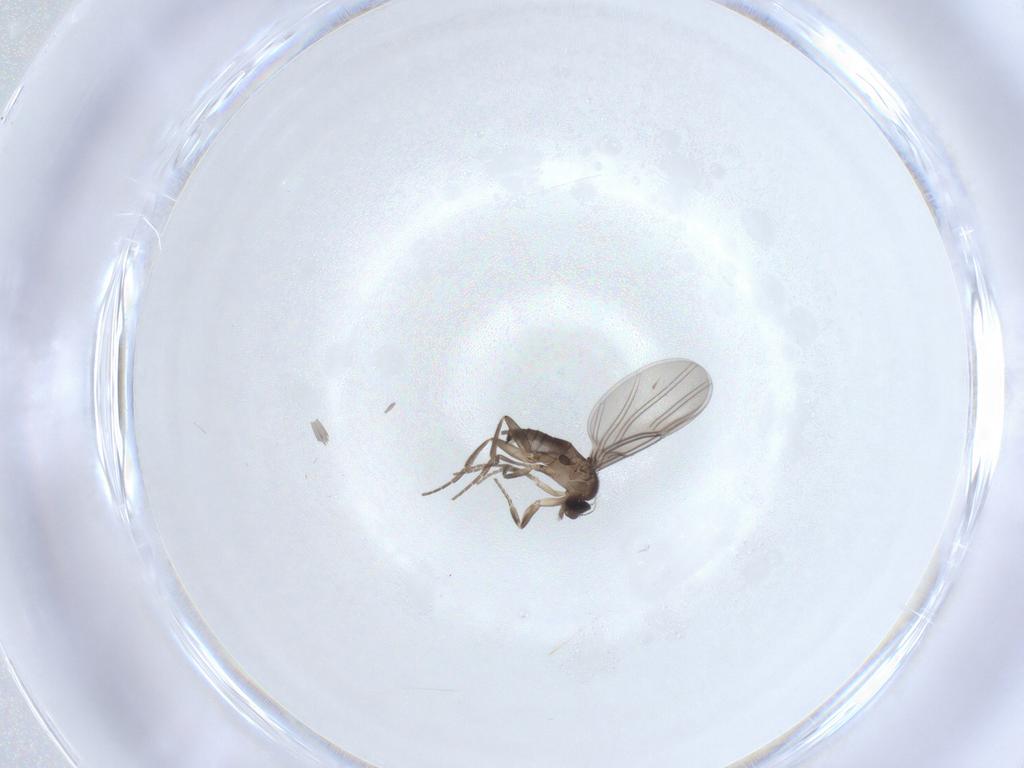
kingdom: Animalia
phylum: Arthropoda
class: Insecta
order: Diptera
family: Phoridae
